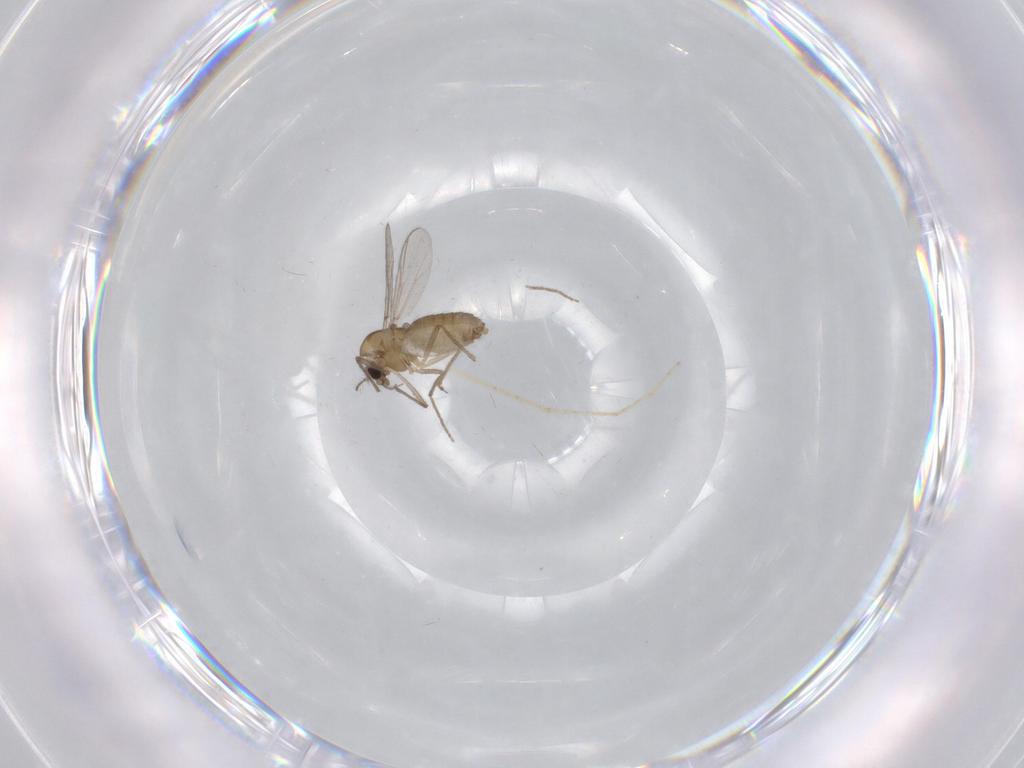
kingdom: Animalia
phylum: Arthropoda
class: Insecta
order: Diptera
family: Chironomidae
